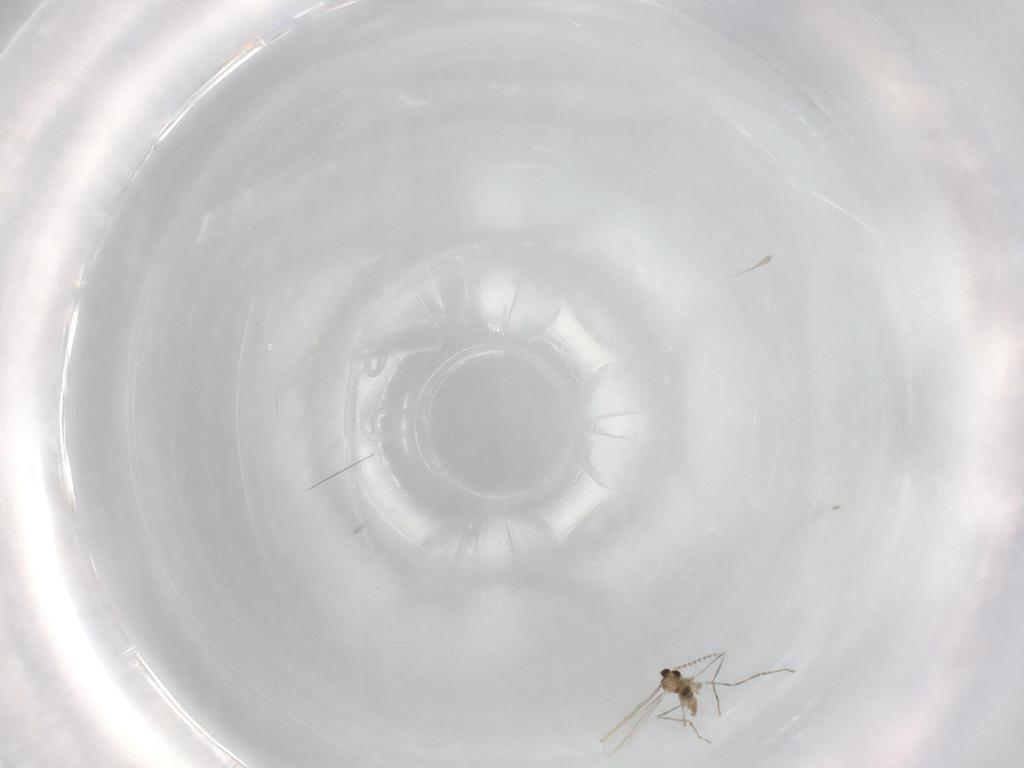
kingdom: Animalia
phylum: Arthropoda
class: Insecta
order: Diptera
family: Cecidomyiidae
